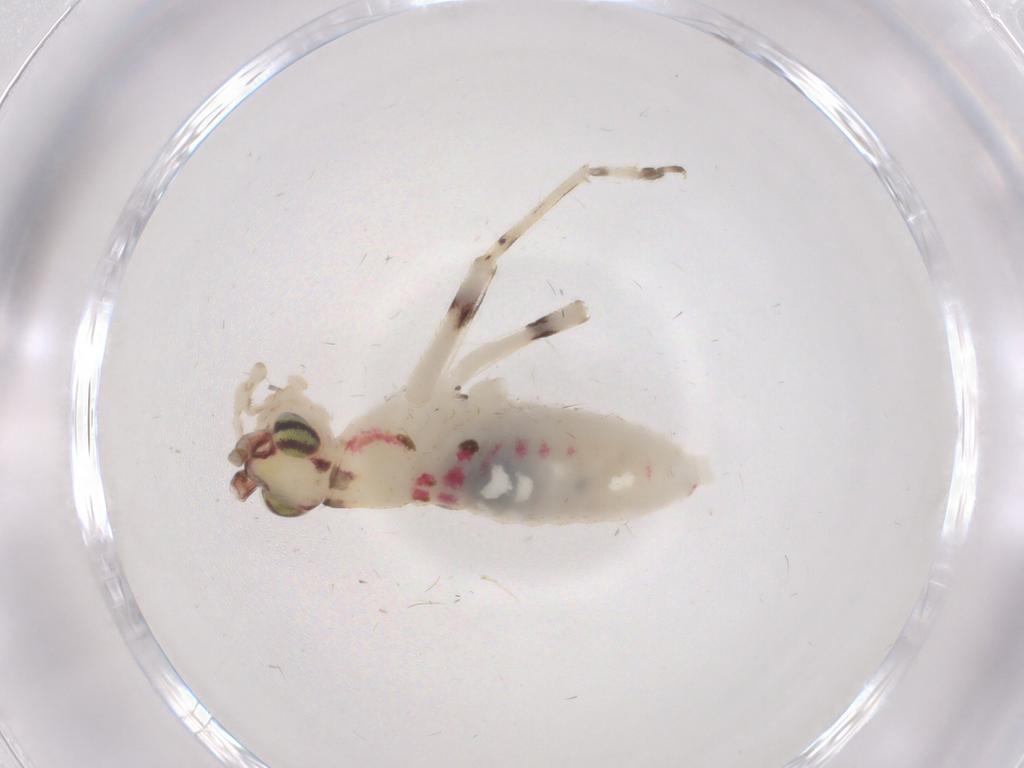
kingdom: Animalia
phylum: Arthropoda
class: Insecta
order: Orthoptera
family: Trigonidiidae
